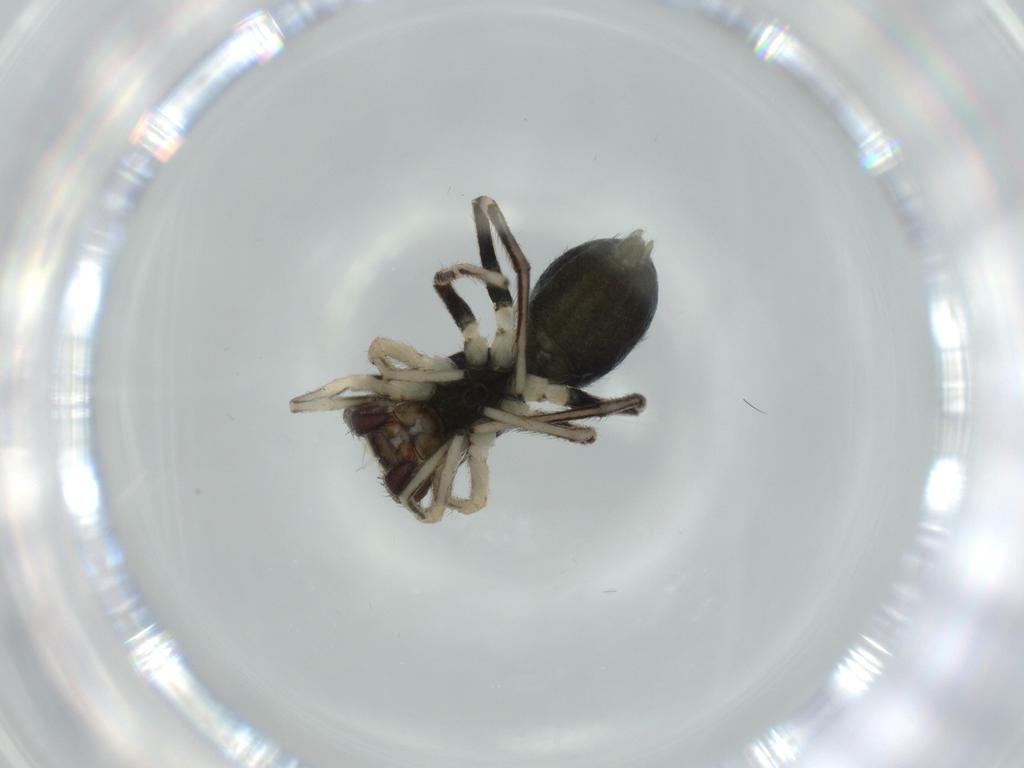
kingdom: Animalia
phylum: Arthropoda
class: Arachnida
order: Araneae
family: Salticidae
